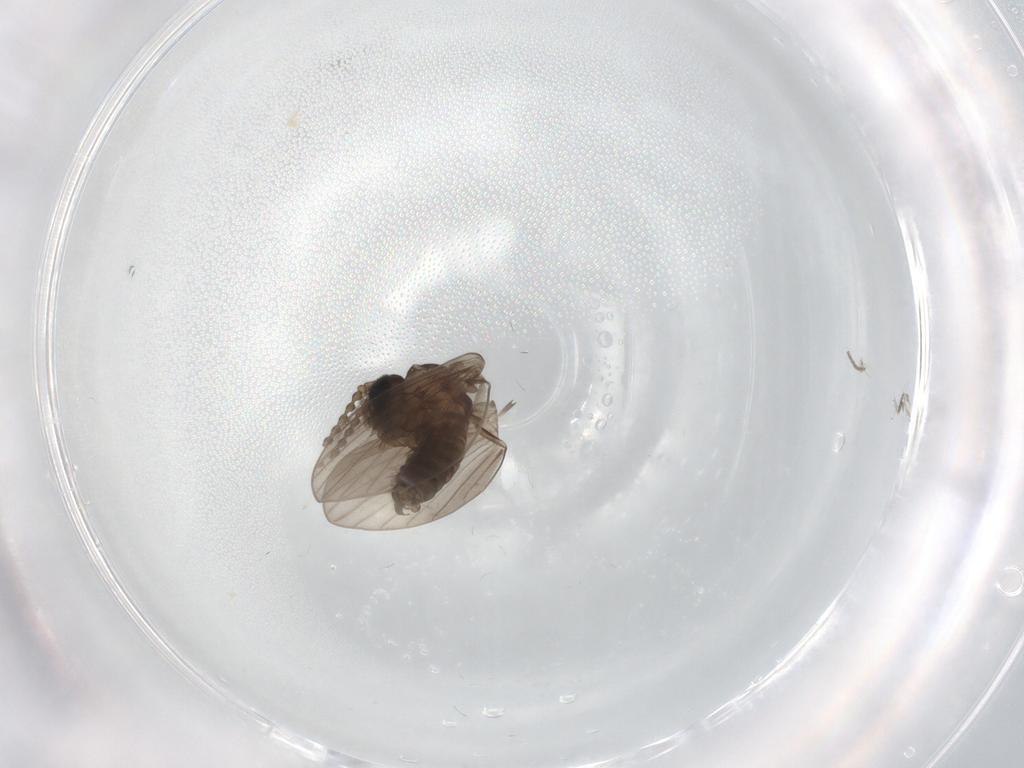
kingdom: Animalia
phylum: Arthropoda
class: Insecta
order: Diptera
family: Psychodidae
